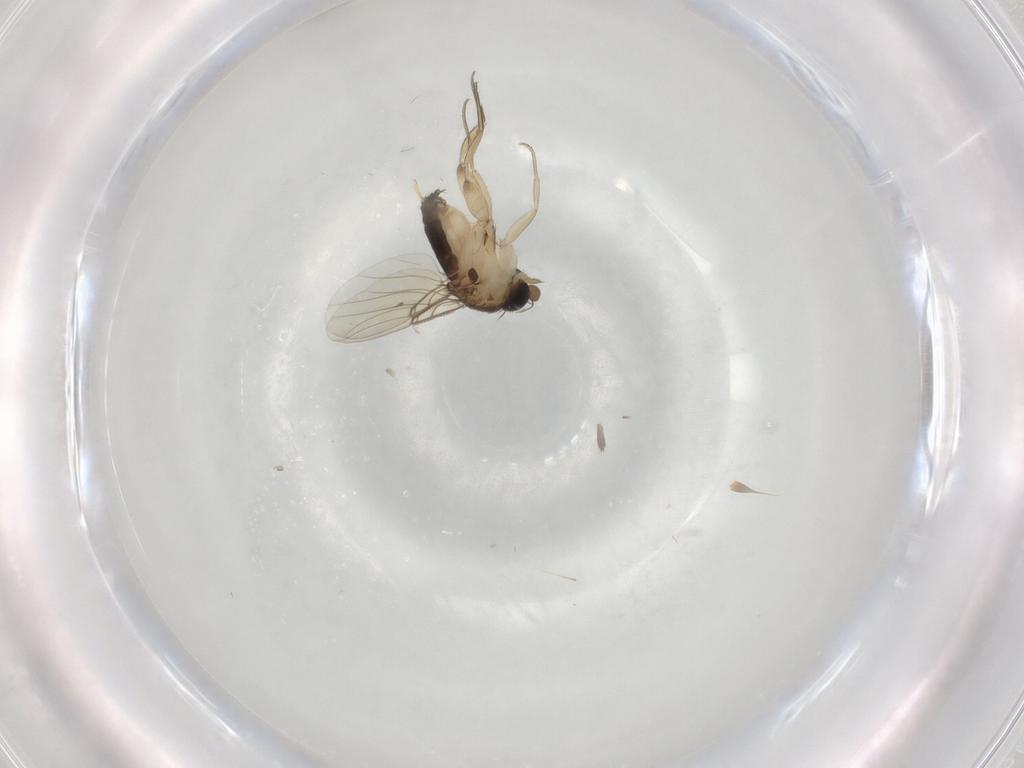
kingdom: Animalia
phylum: Arthropoda
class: Insecta
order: Diptera
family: Phoridae
